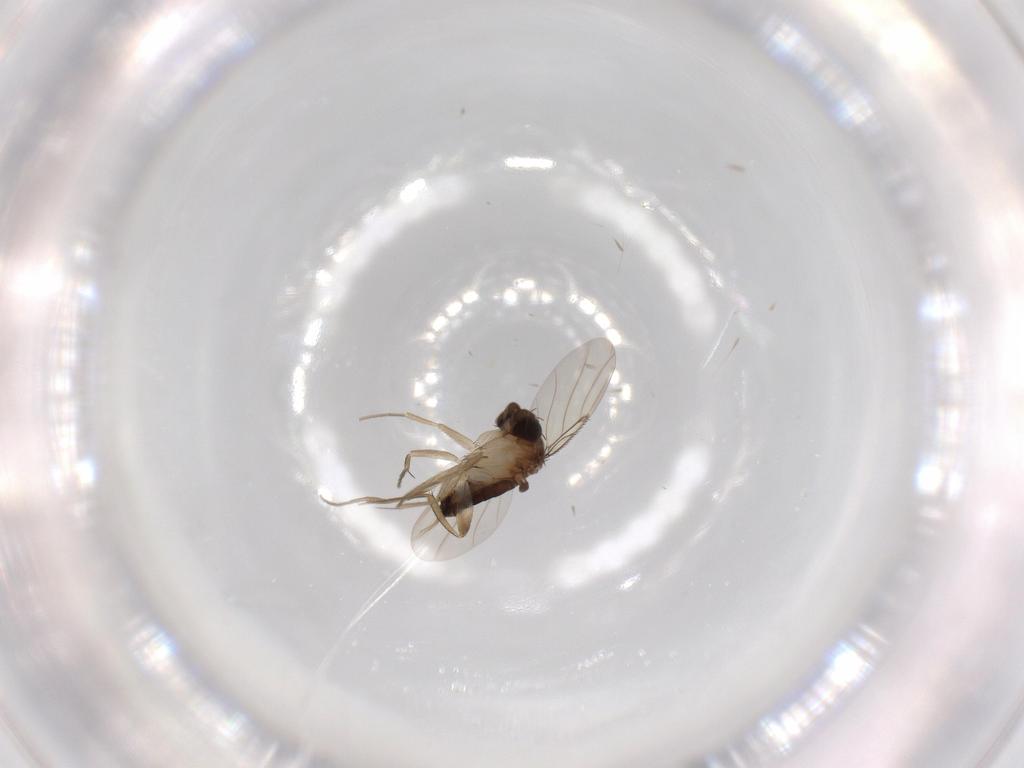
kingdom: Animalia
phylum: Arthropoda
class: Insecta
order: Diptera
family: Phoridae
